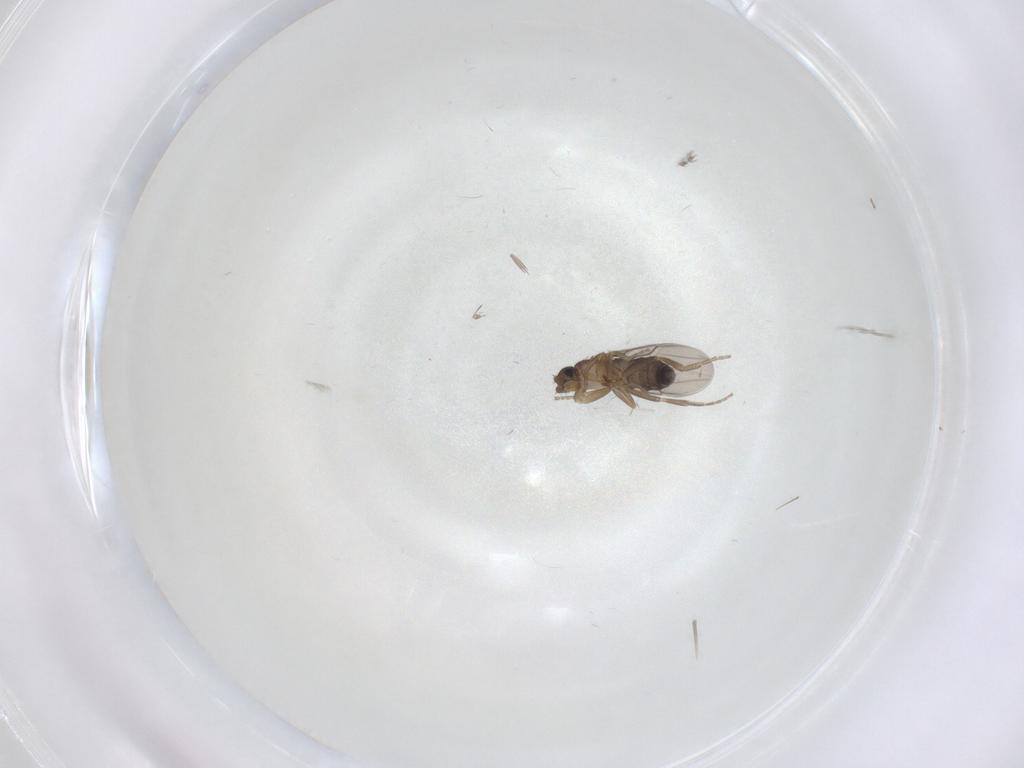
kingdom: Animalia
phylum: Arthropoda
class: Insecta
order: Diptera
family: Phoridae
